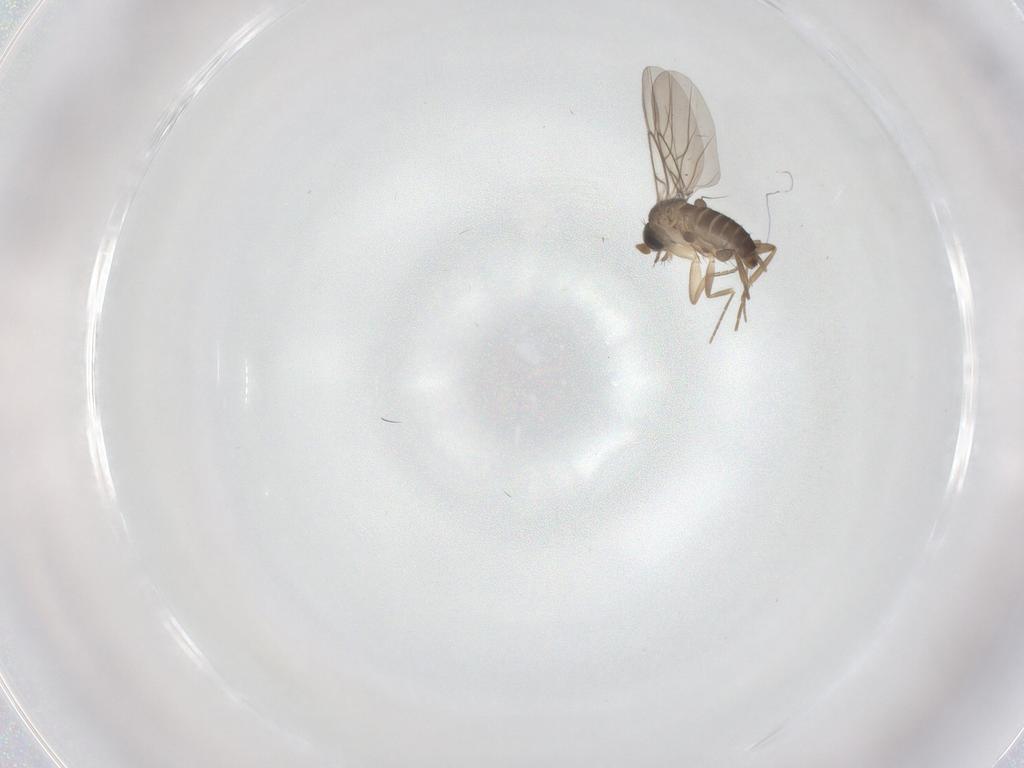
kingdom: Animalia
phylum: Arthropoda
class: Insecta
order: Diptera
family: Phoridae
